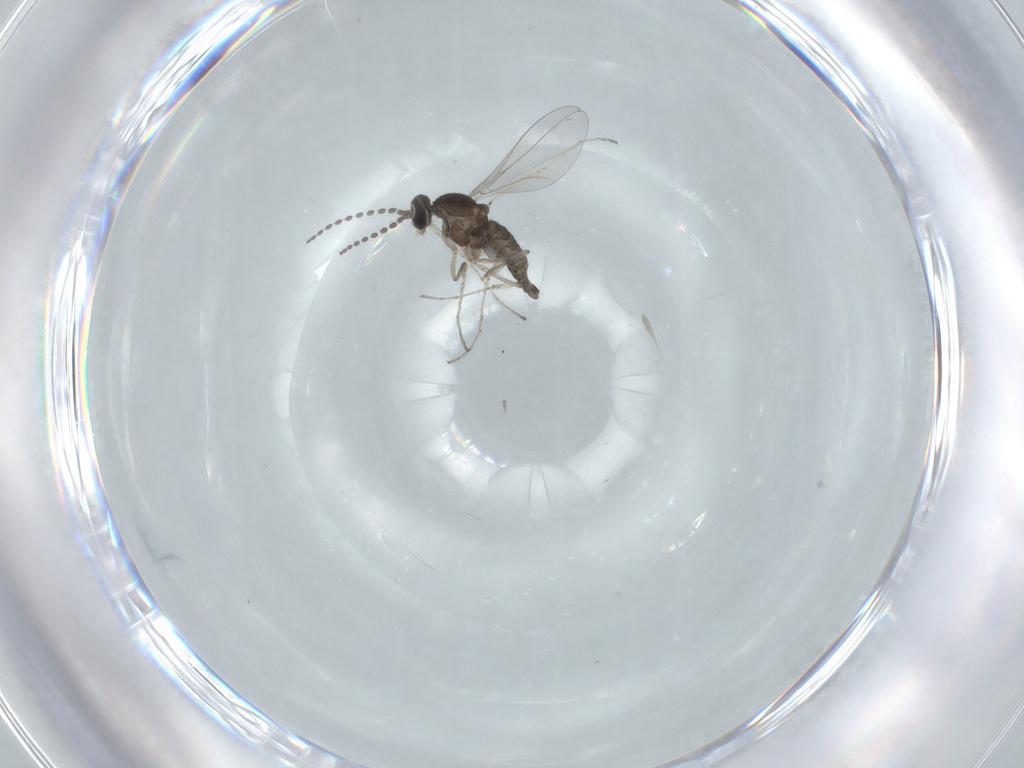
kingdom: Animalia
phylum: Arthropoda
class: Insecta
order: Diptera
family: Cecidomyiidae
